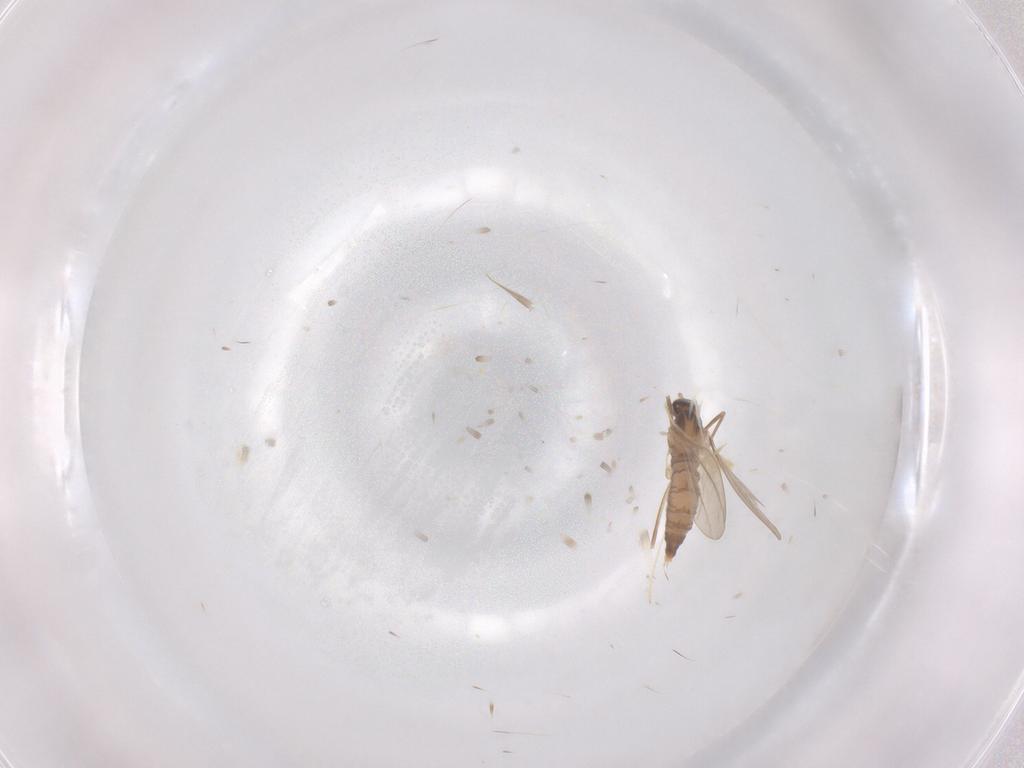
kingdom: Animalia
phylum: Arthropoda
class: Insecta
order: Diptera
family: Cecidomyiidae
